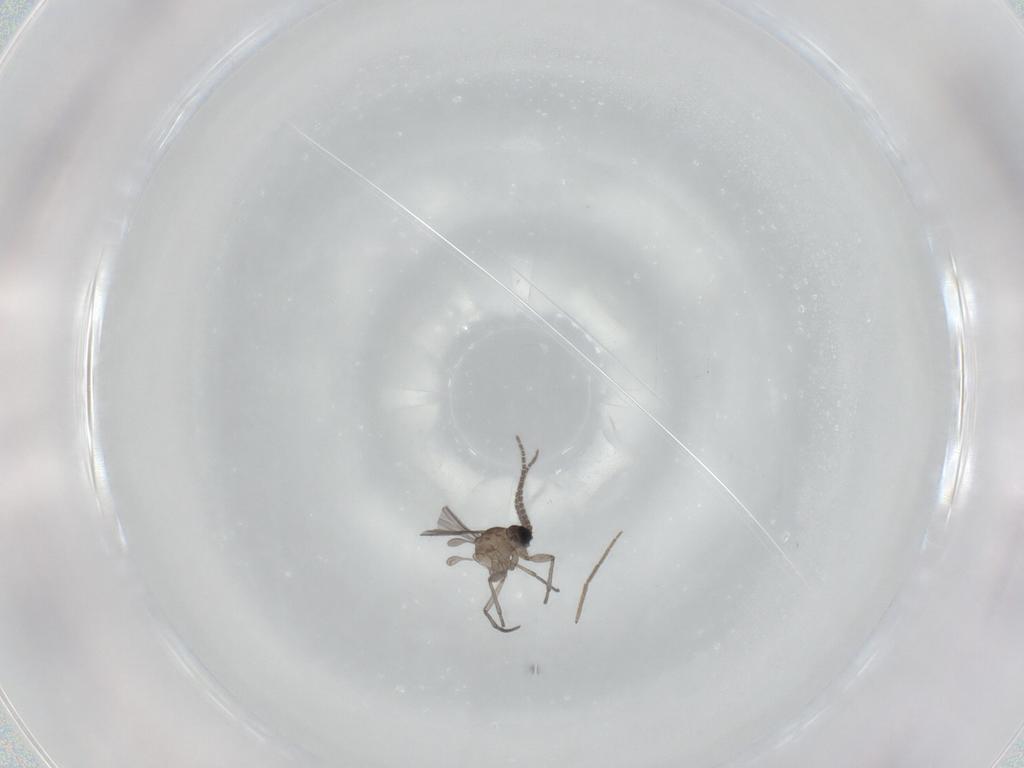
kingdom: Animalia
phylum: Arthropoda
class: Insecta
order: Diptera
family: Sciaridae
